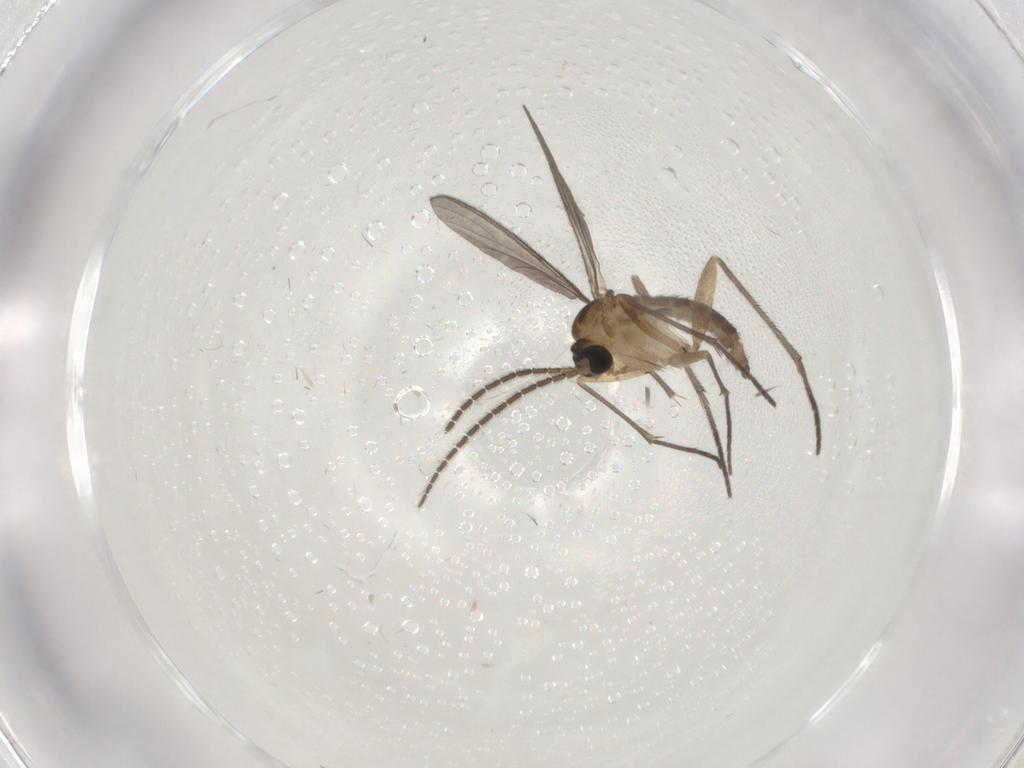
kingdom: Animalia
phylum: Arthropoda
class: Insecta
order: Diptera
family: Sciaridae
